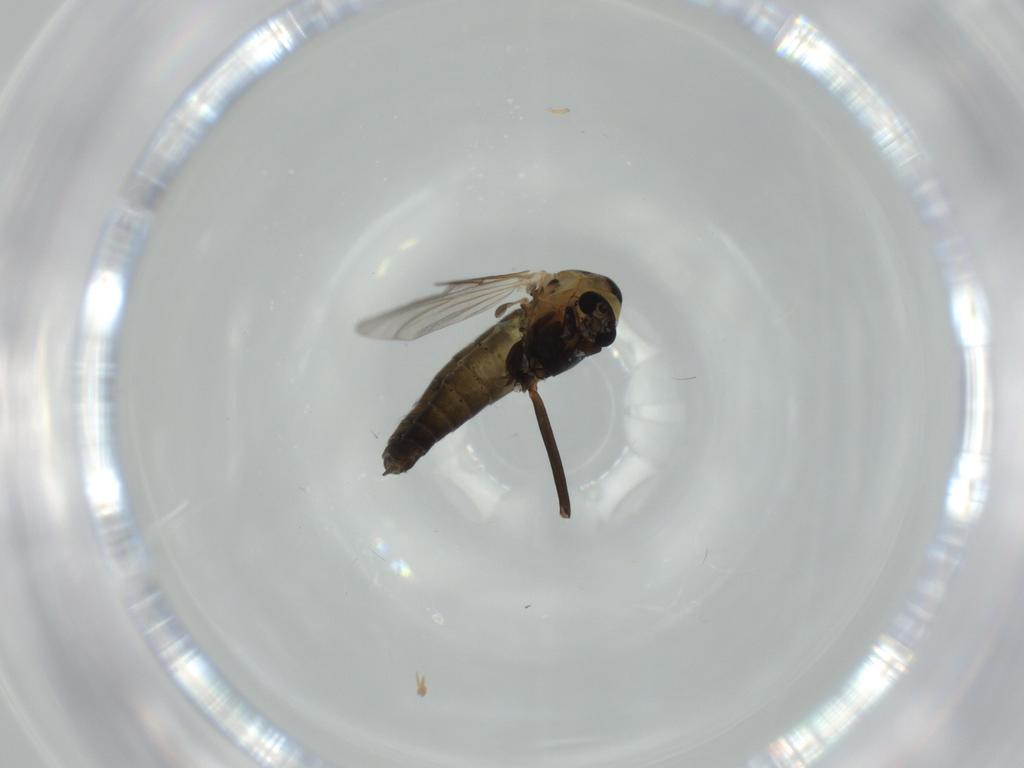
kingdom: Animalia
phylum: Arthropoda
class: Insecta
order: Diptera
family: Phoridae
